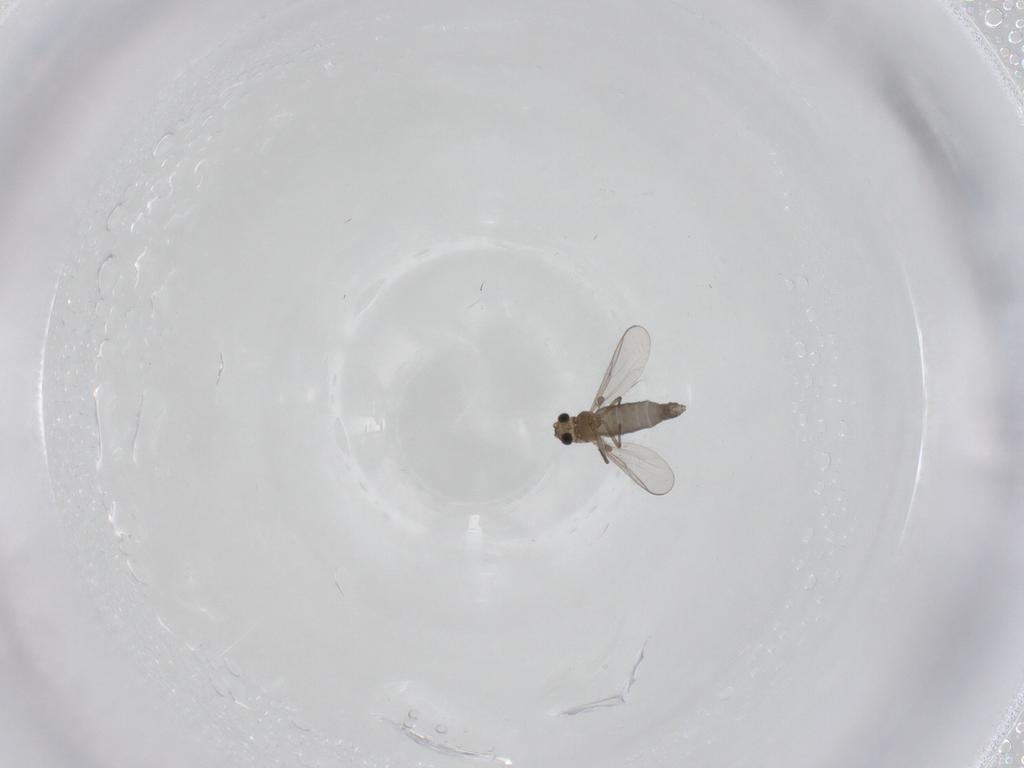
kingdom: Animalia
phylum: Arthropoda
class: Insecta
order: Diptera
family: Chironomidae
